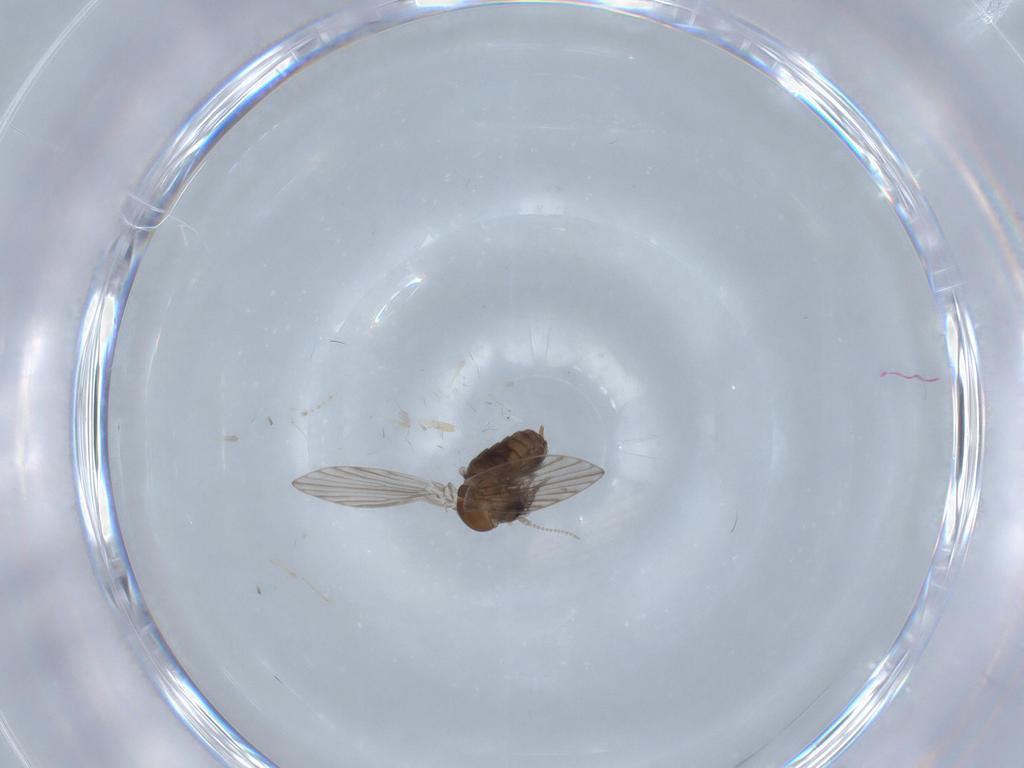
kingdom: Animalia
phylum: Arthropoda
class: Insecta
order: Diptera
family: Psychodidae
